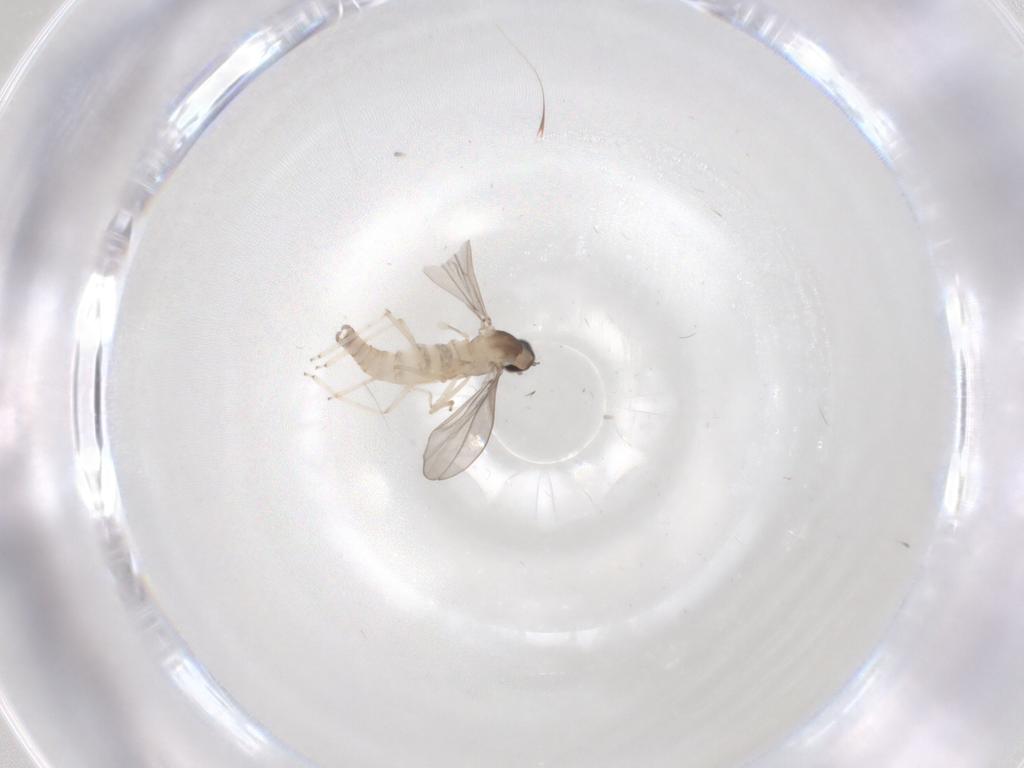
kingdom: Animalia
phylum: Arthropoda
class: Insecta
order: Diptera
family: Cecidomyiidae
